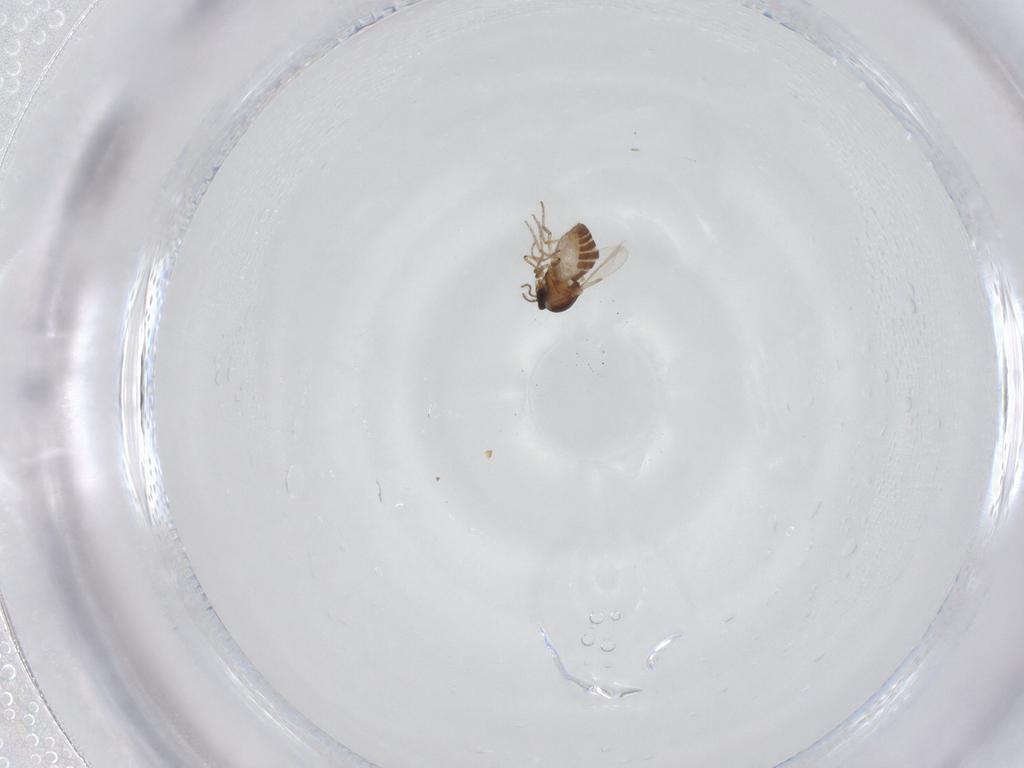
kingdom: Animalia
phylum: Arthropoda
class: Insecta
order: Diptera
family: Ceratopogonidae
